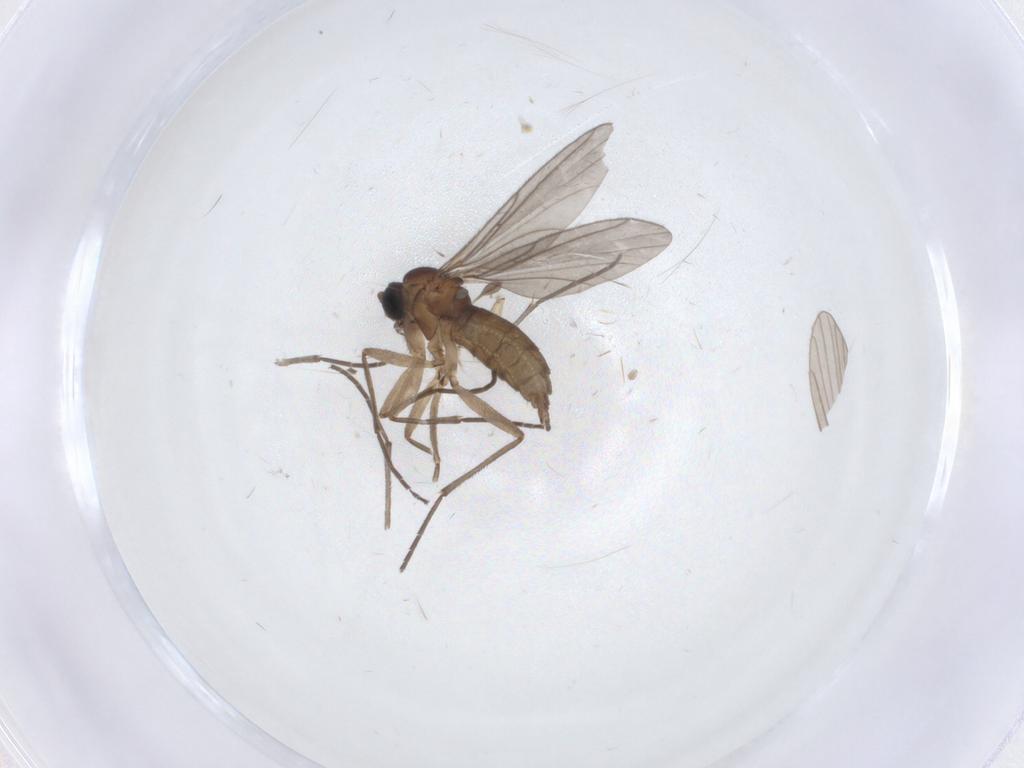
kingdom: Animalia
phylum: Arthropoda
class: Insecta
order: Diptera
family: Sciaridae
